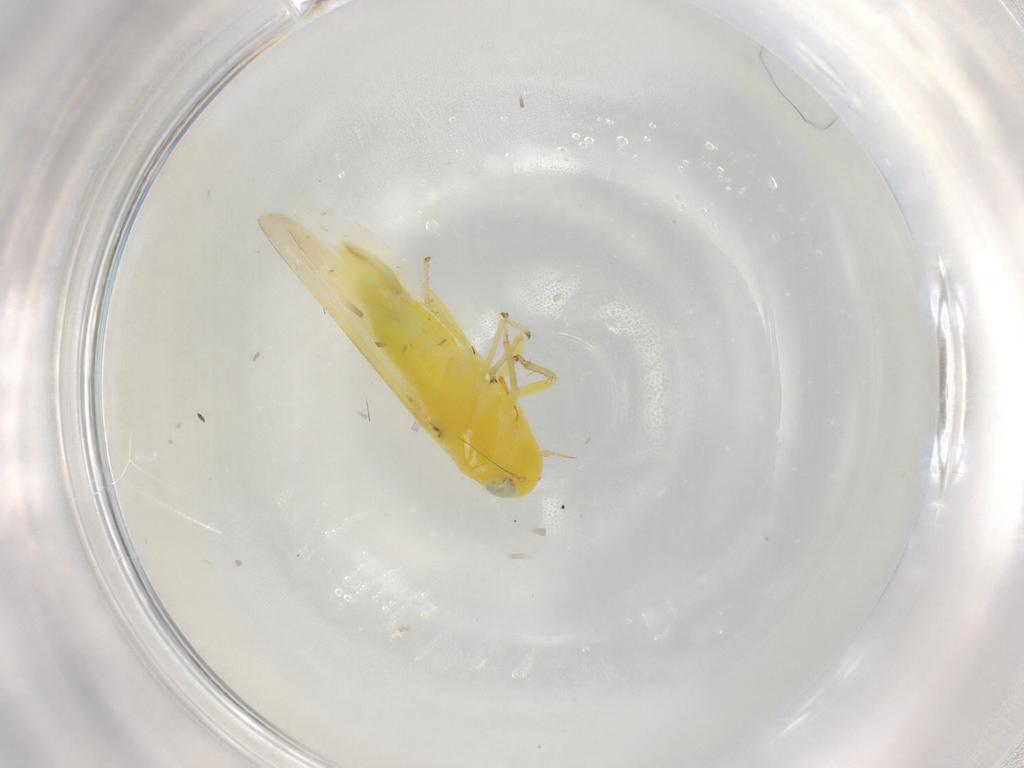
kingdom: Animalia
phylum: Arthropoda
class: Insecta
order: Hemiptera
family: Cicadellidae
